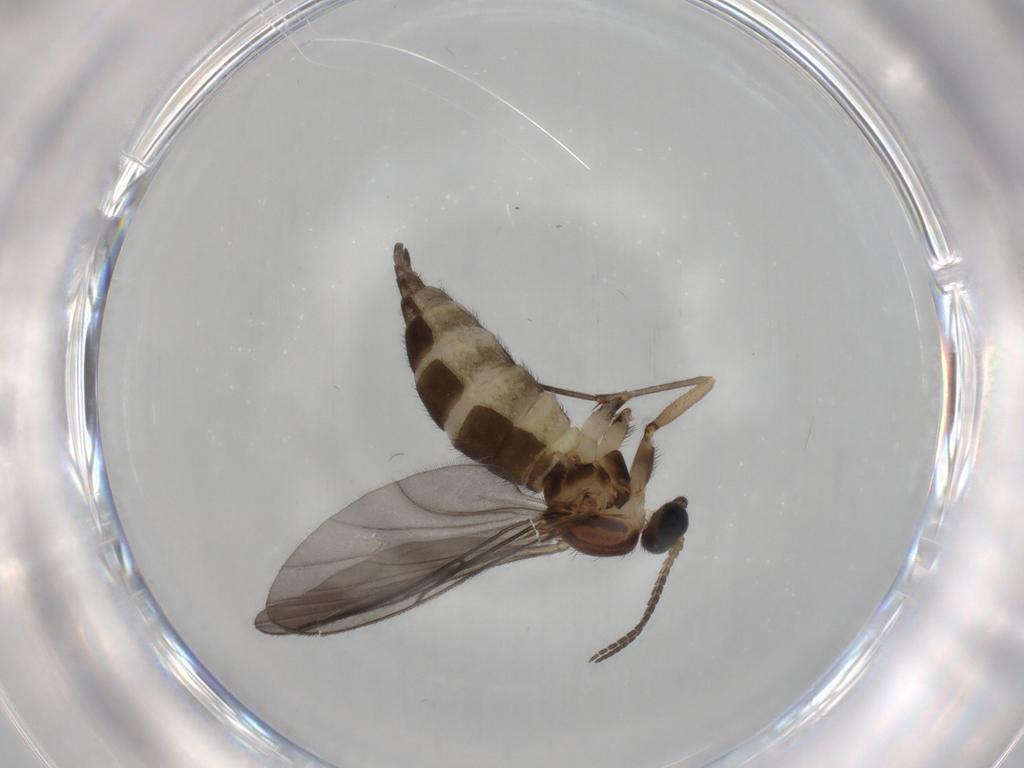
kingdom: Animalia
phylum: Arthropoda
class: Insecta
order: Diptera
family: Sciaridae
